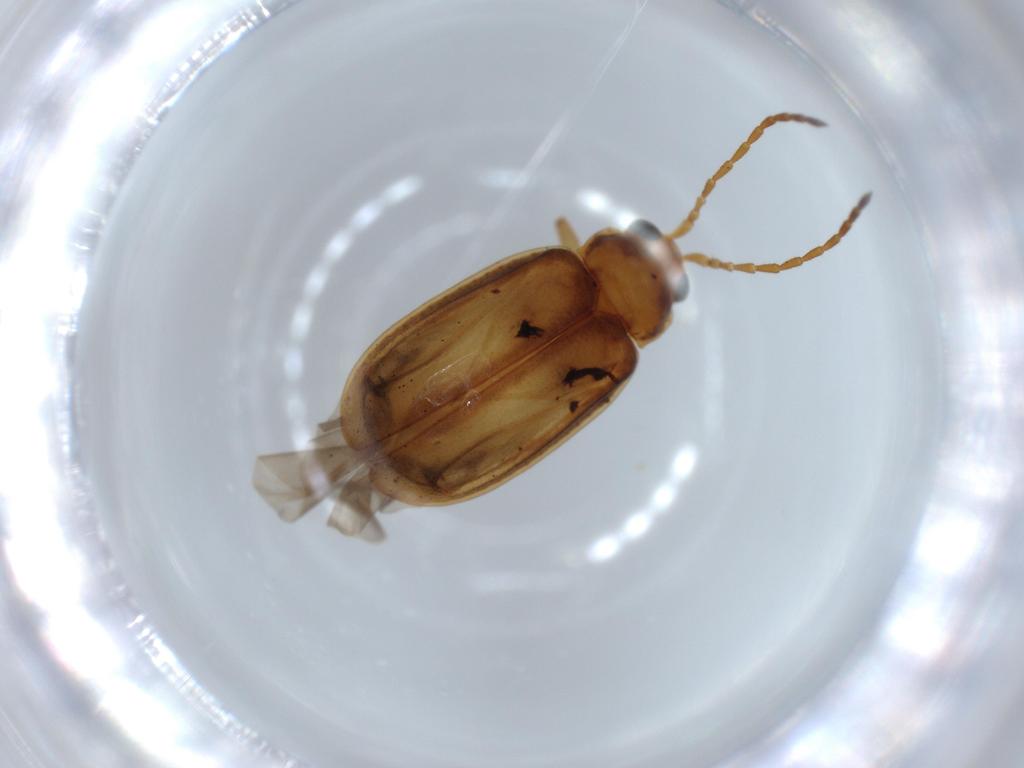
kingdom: Animalia
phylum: Arthropoda
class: Insecta
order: Coleoptera
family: Chrysomelidae
